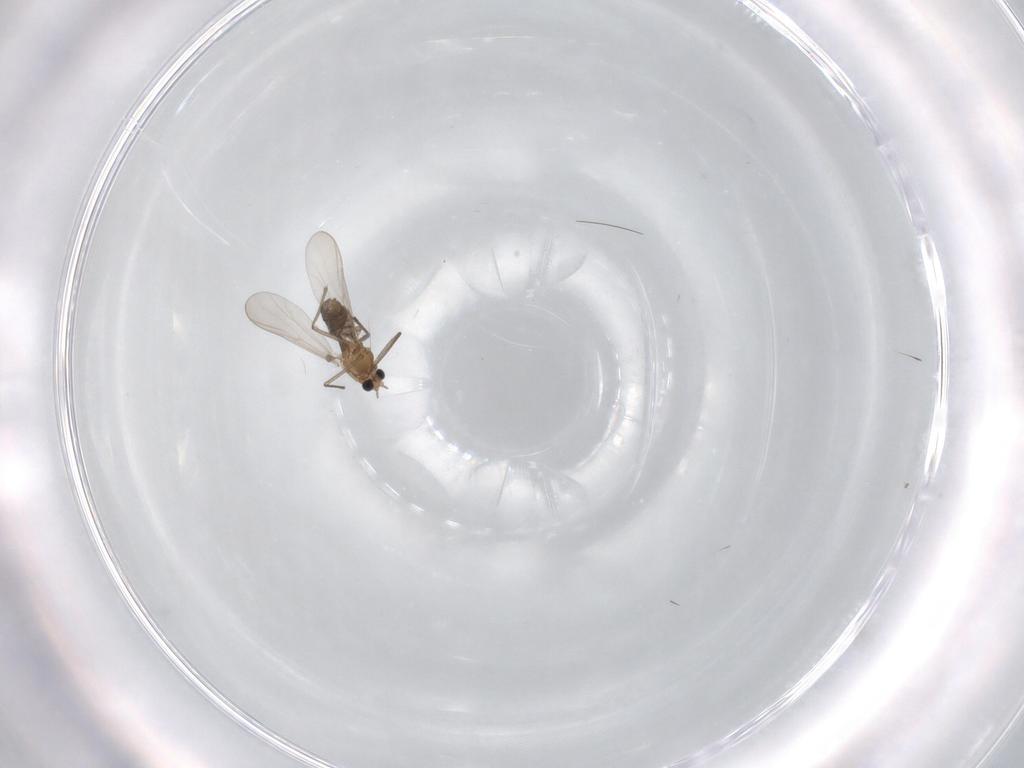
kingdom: Animalia
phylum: Arthropoda
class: Insecta
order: Diptera
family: Chironomidae
